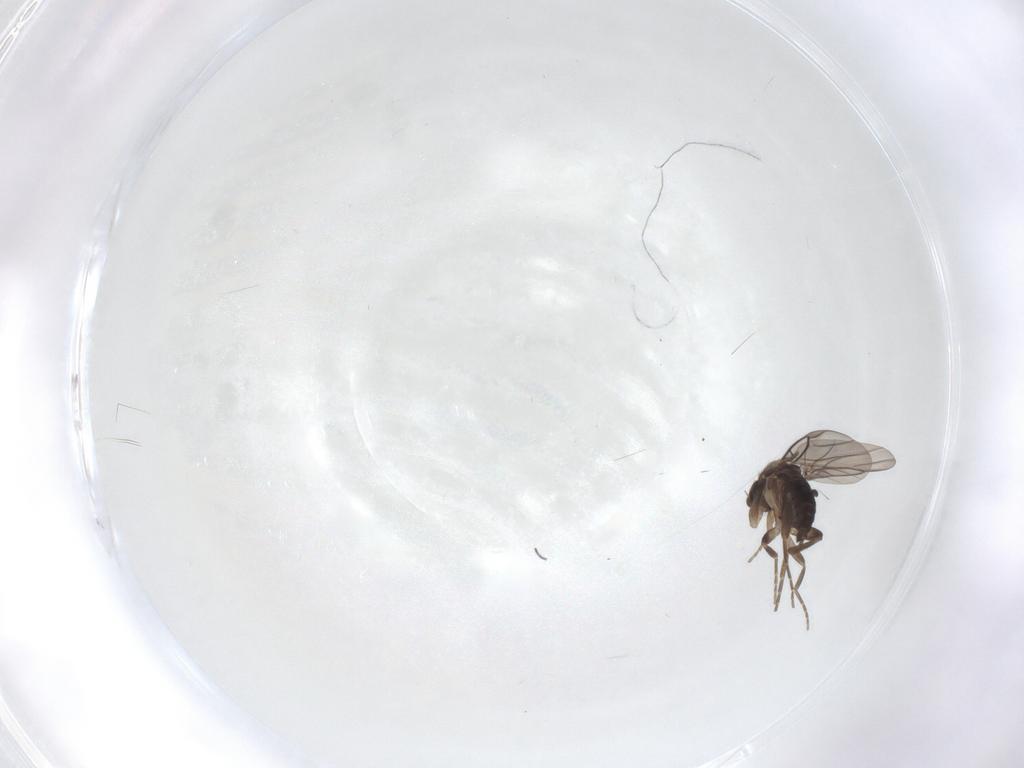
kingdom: Animalia
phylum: Arthropoda
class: Insecta
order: Diptera
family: Phoridae
